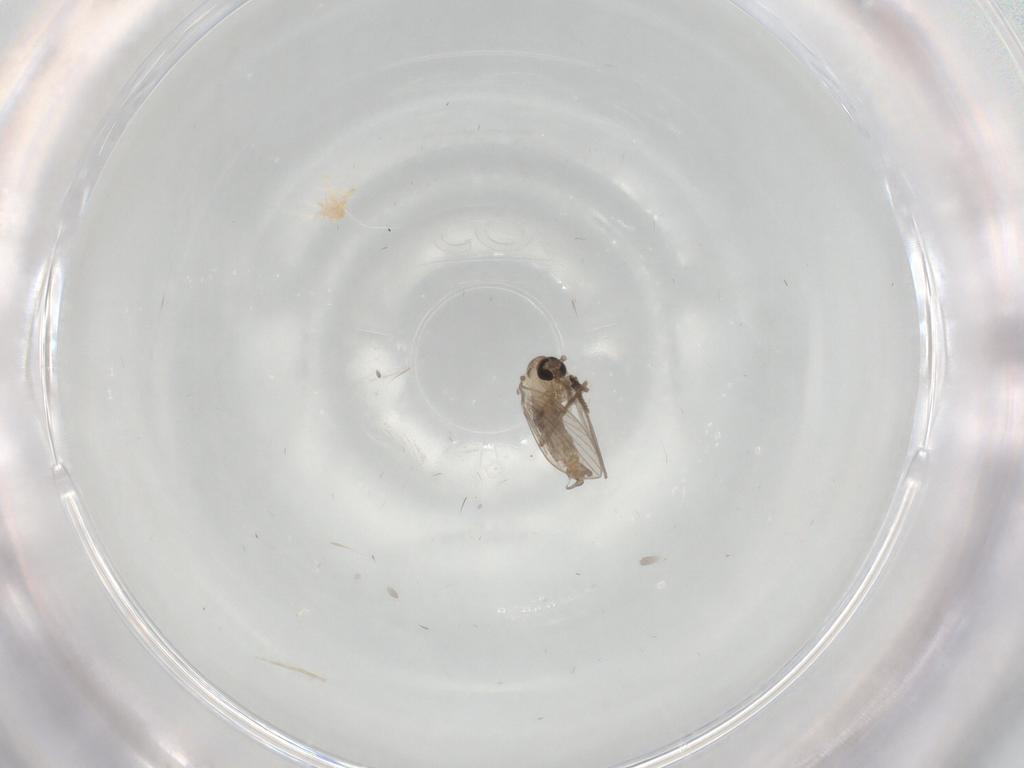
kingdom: Animalia
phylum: Arthropoda
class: Insecta
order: Diptera
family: Psychodidae
